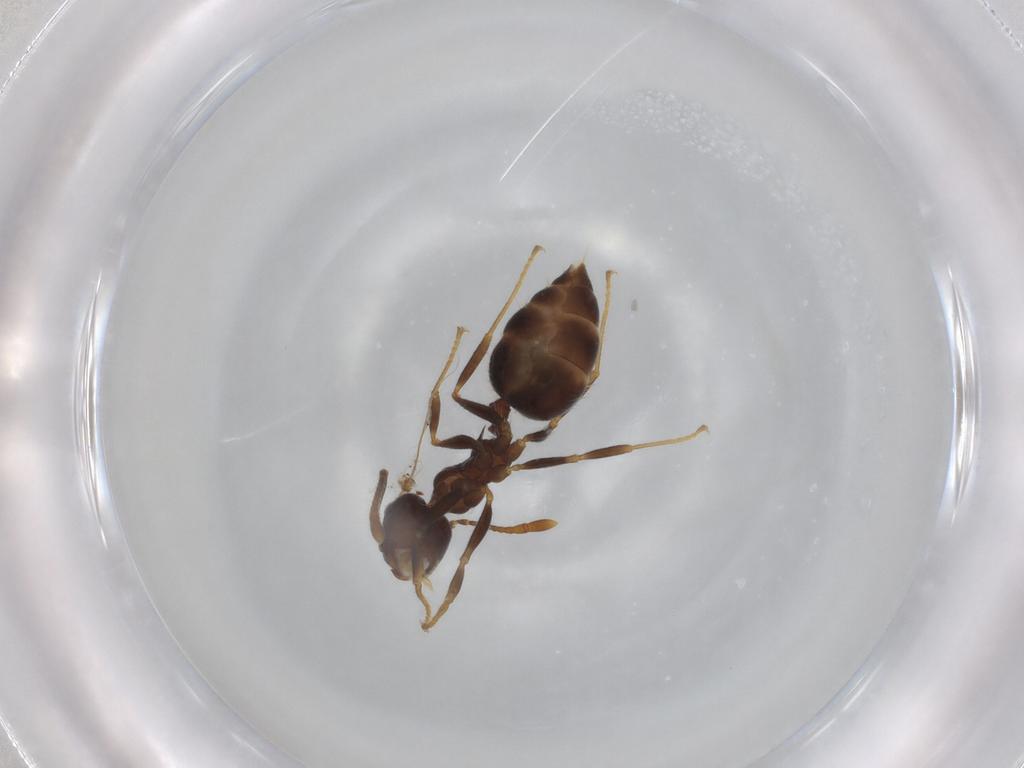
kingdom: Animalia
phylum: Arthropoda
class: Insecta
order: Hymenoptera
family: Formicidae
